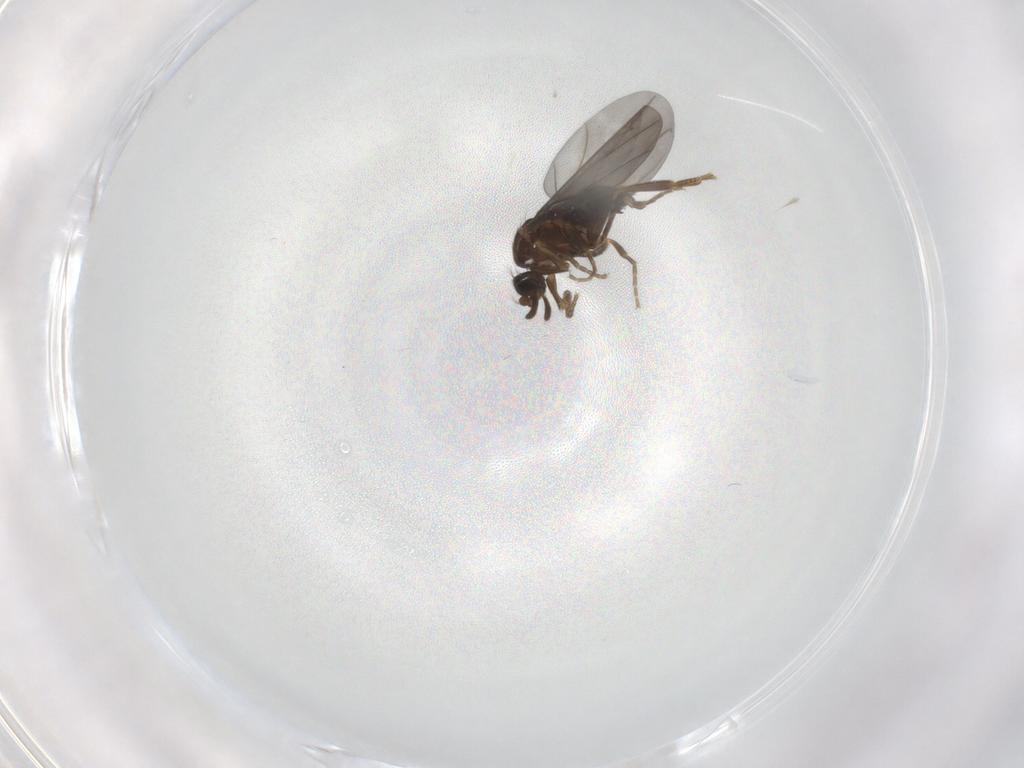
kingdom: Animalia
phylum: Arthropoda
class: Insecta
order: Diptera
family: Phoridae
